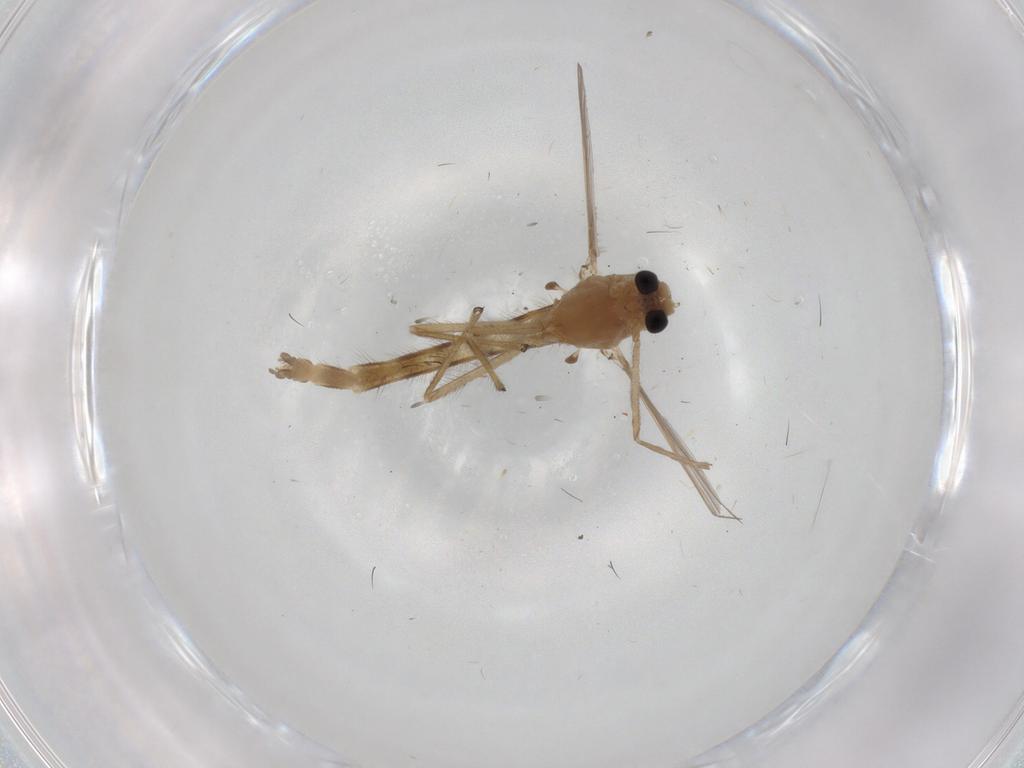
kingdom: Animalia
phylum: Arthropoda
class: Insecta
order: Diptera
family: Chironomidae
